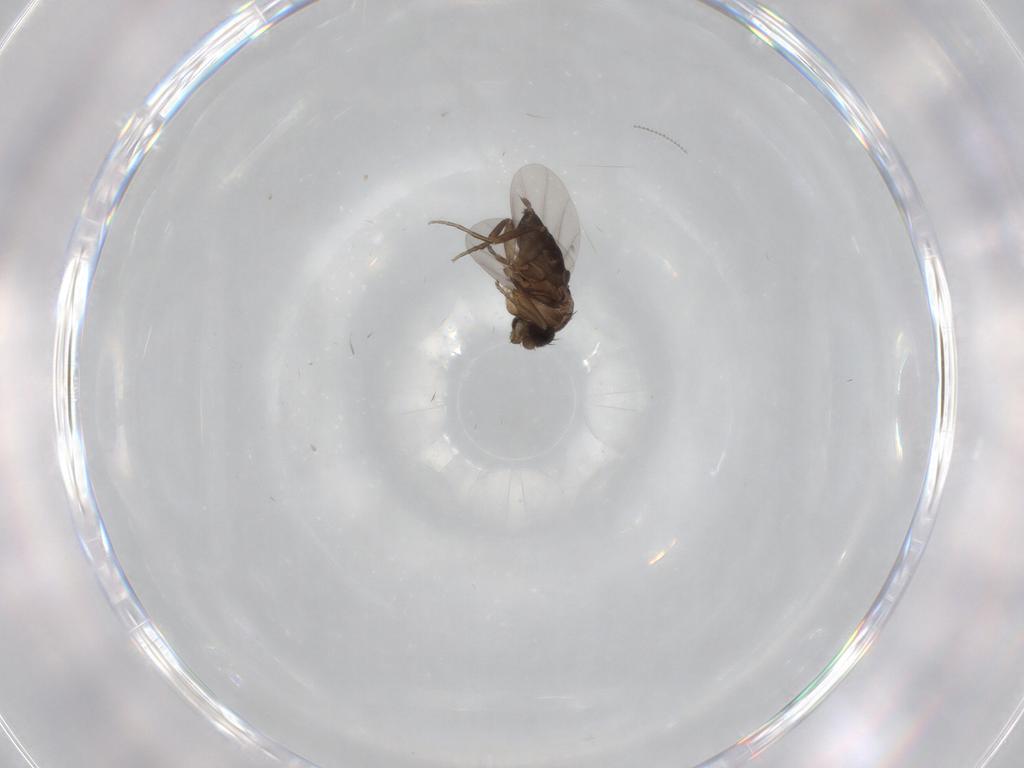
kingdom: Animalia
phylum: Arthropoda
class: Insecta
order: Diptera
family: Phoridae
